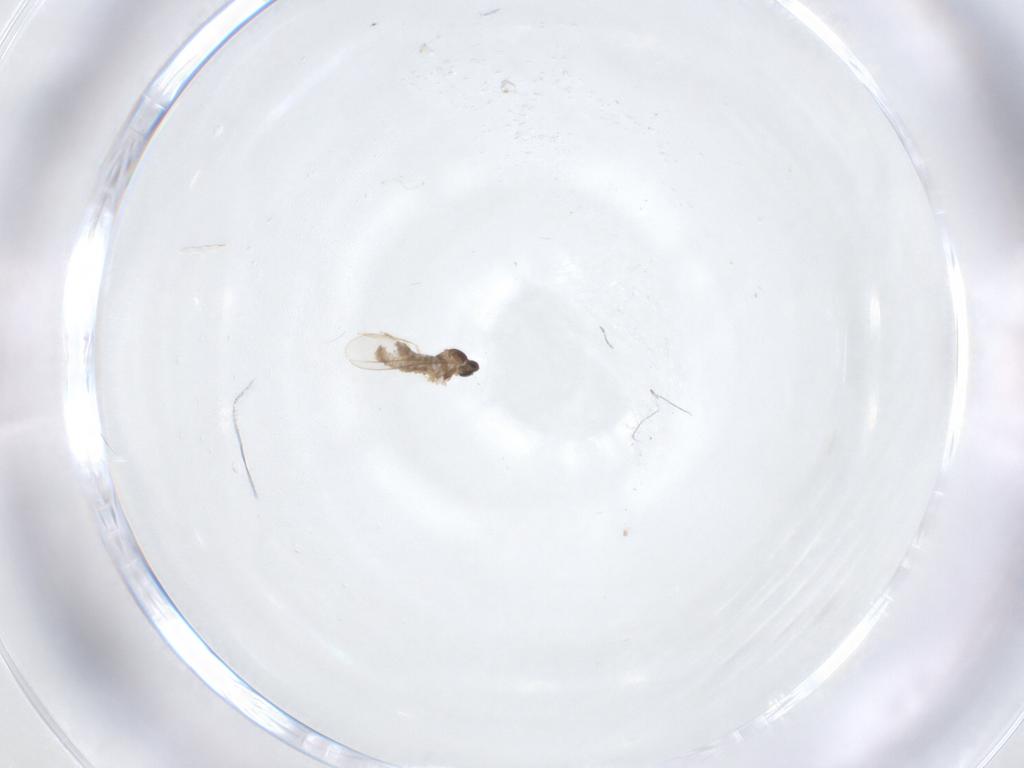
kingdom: Animalia
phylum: Arthropoda
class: Insecta
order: Diptera
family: Cecidomyiidae
